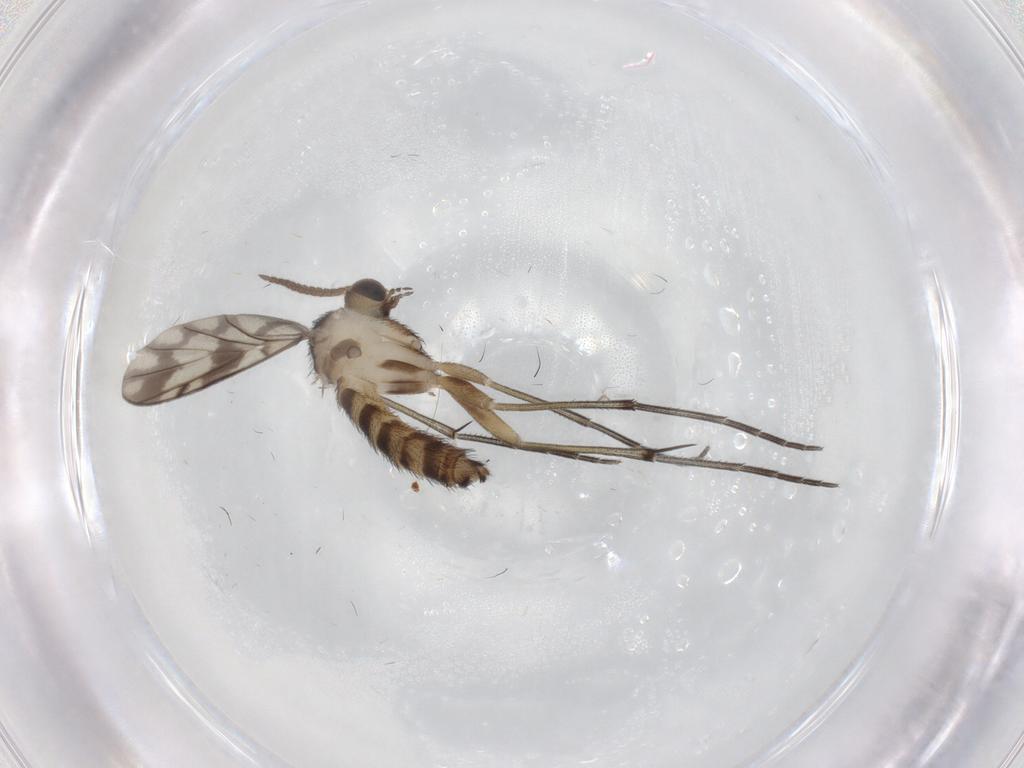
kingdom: Animalia
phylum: Arthropoda
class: Insecta
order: Diptera
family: Keroplatidae
